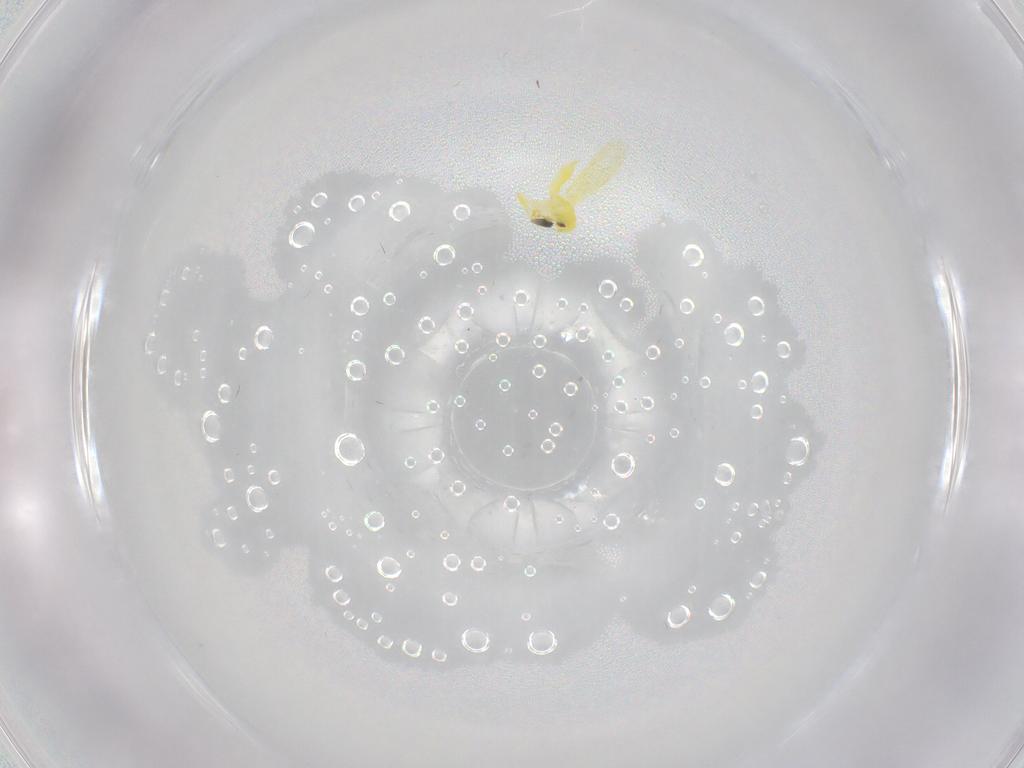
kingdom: Animalia
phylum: Arthropoda
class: Insecta
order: Hemiptera
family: Aleyrodidae
